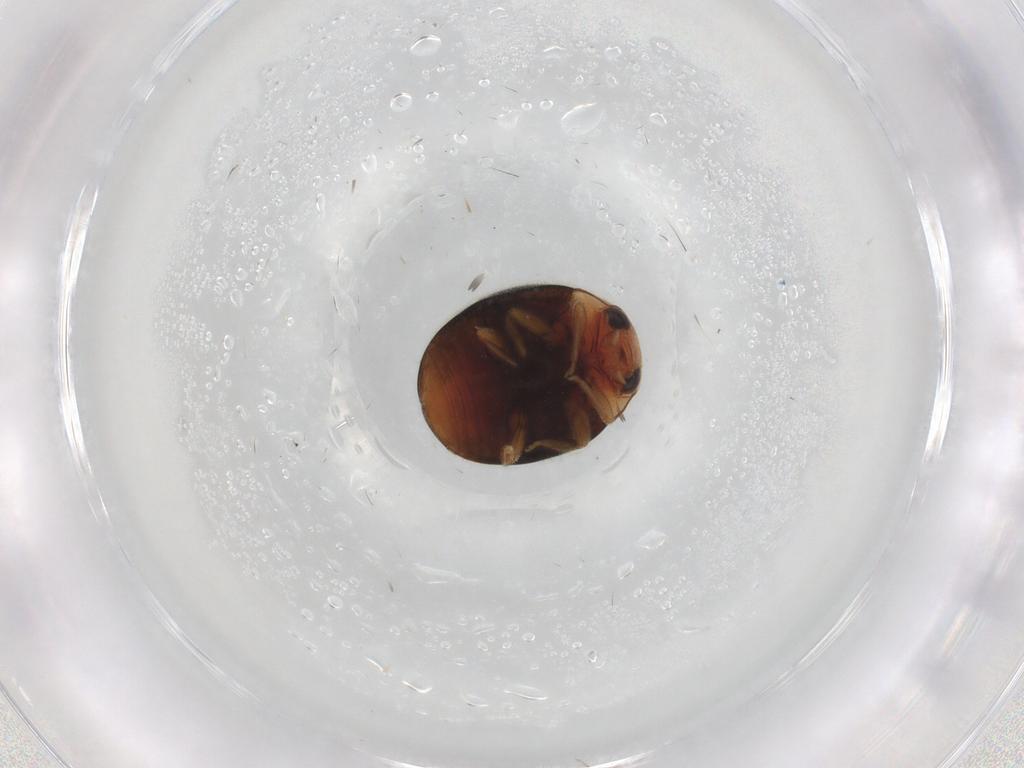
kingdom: Animalia
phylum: Arthropoda
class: Insecta
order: Coleoptera
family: Coccinellidae
